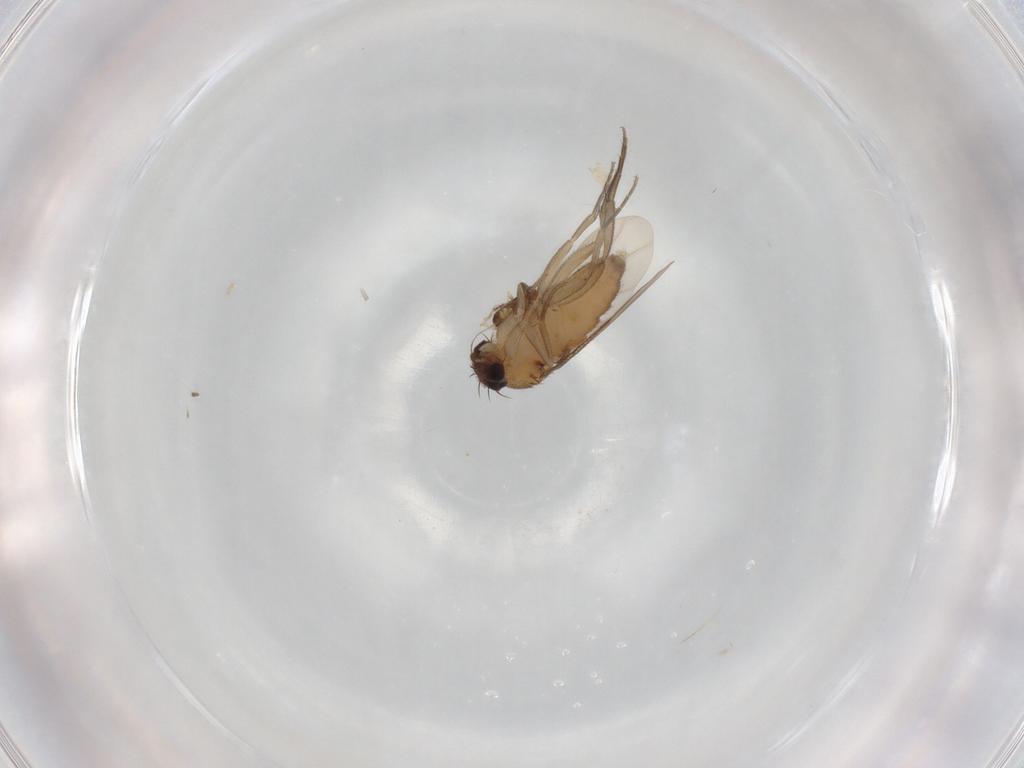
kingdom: Animalia
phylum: Arthropoda
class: Insecta
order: Diptera
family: Phoridae
